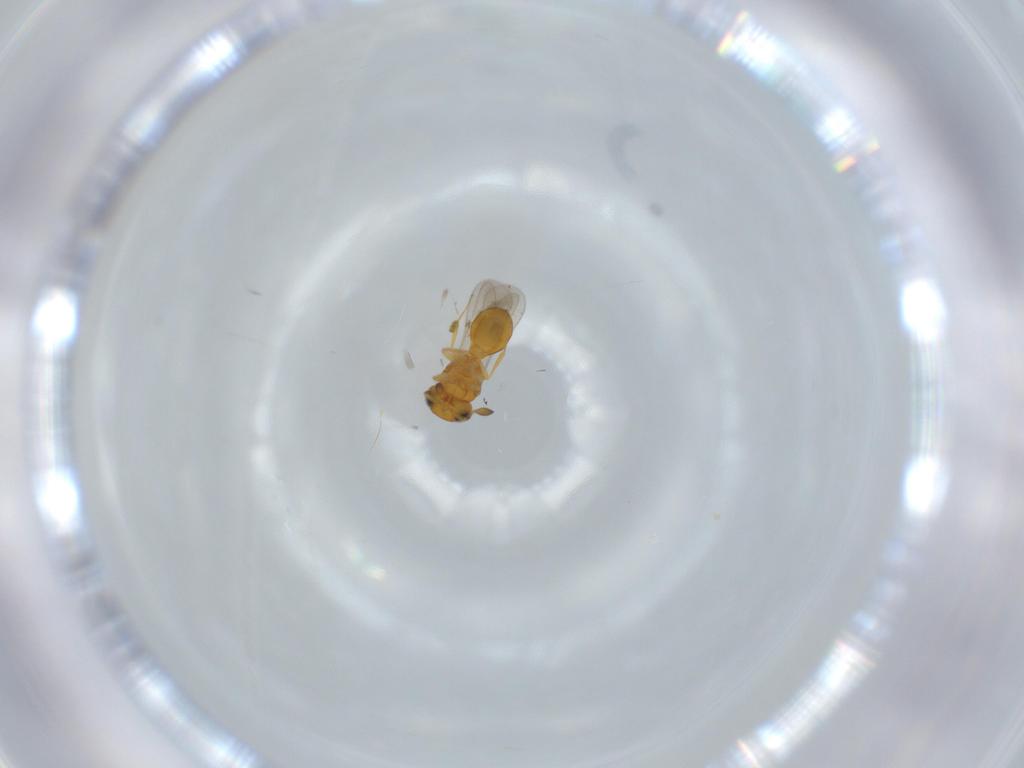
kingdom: Animalia
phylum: Arthropoda
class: Insecta
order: Hymenoptera
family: Scelionidae
